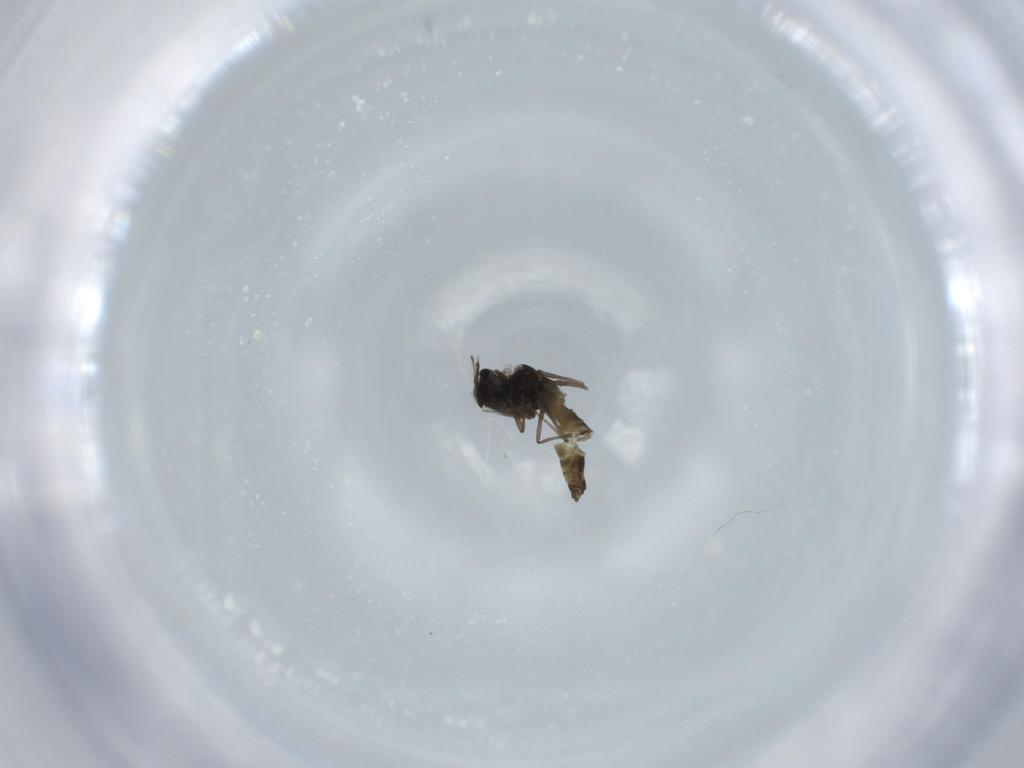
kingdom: Animalia
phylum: Arthropoda
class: Insecta
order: Diptera
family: Chironomidae
